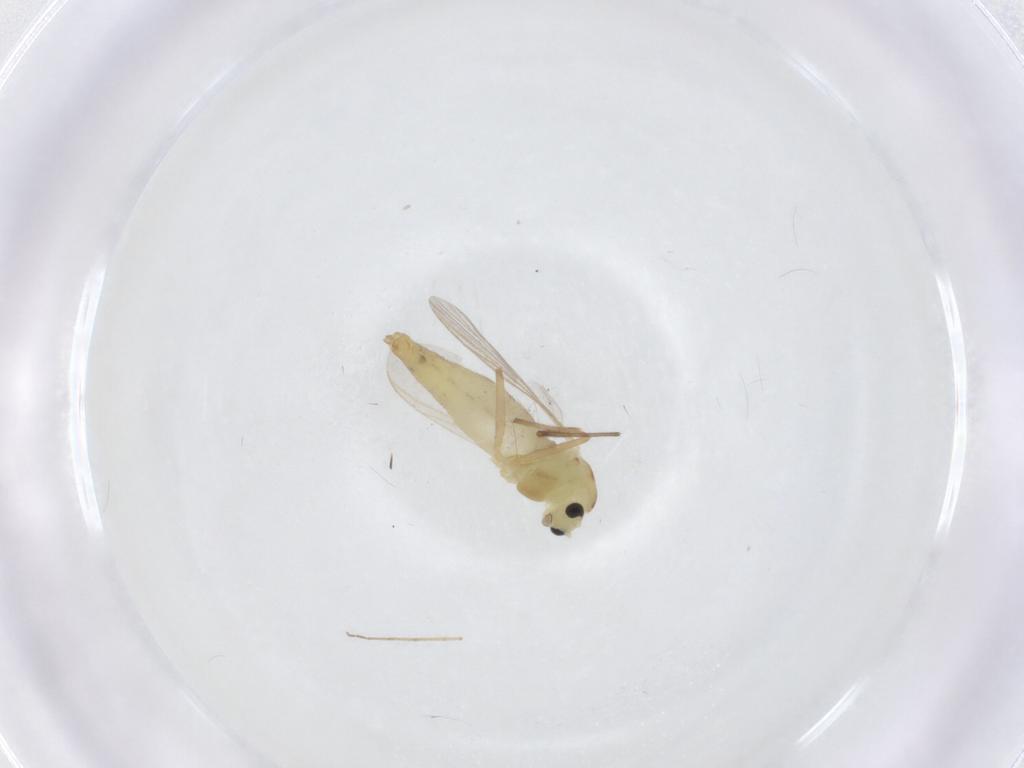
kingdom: Animalia
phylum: Arthropoda
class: Insecta
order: Diptera
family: Chironomidae
